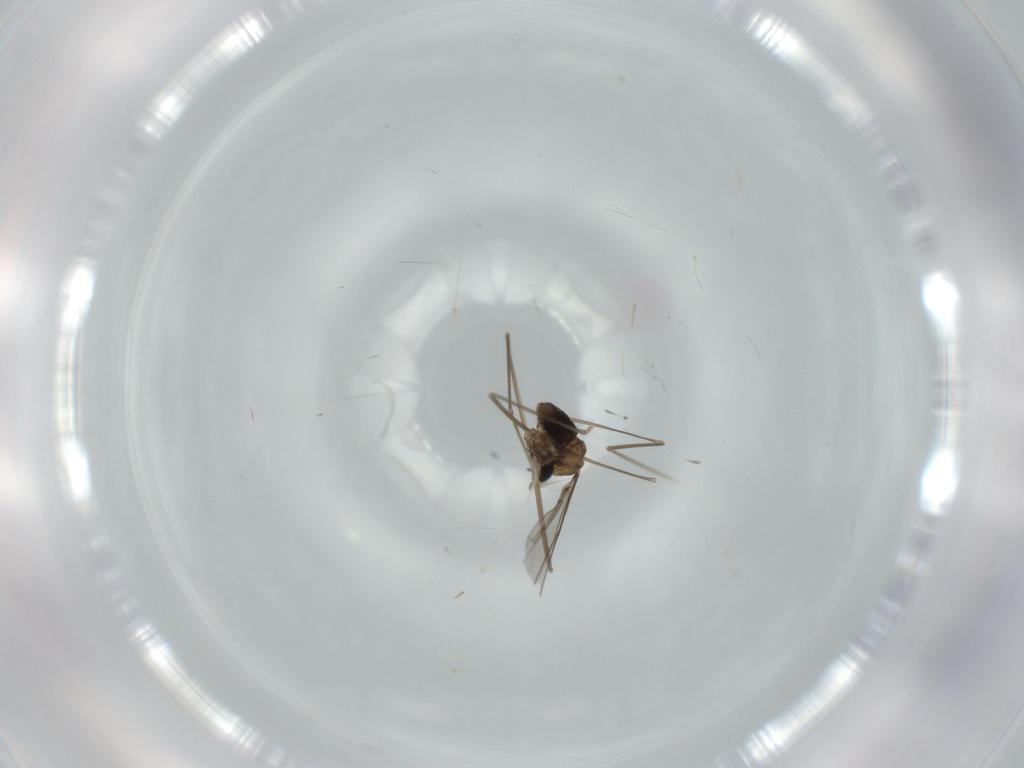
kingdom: Animalia
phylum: Arthropoda
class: Insecta
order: Diptera
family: Cecidomyiidae
